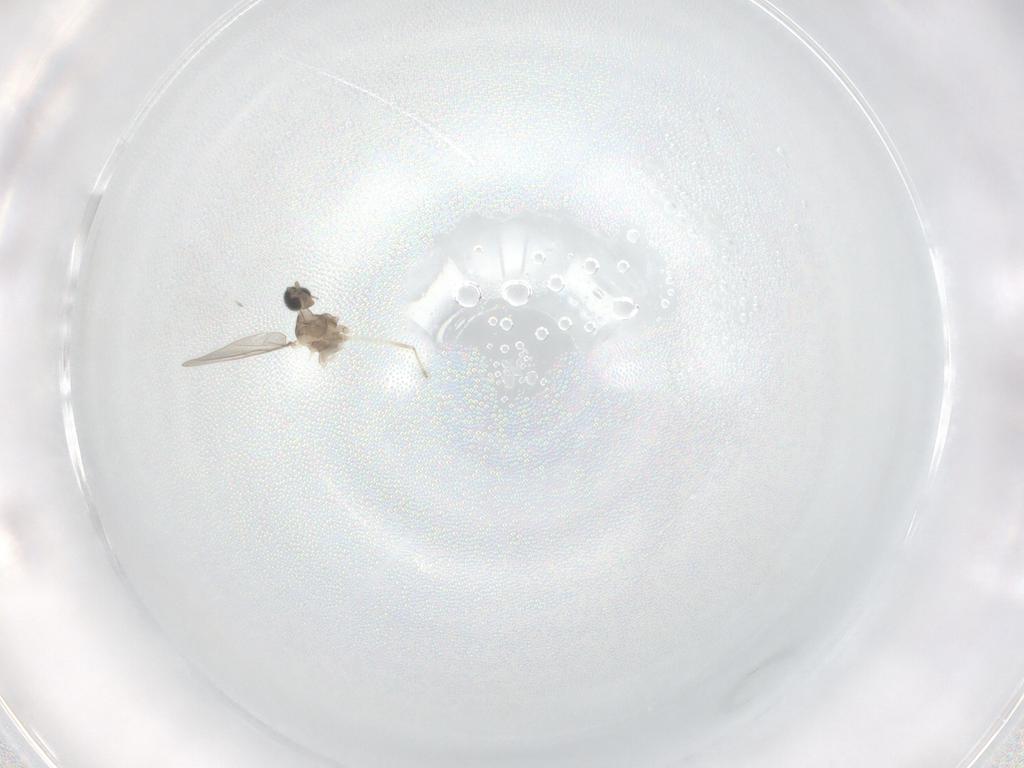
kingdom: Animalia
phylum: Arthropoda
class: Insecta
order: Diptera
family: Cecidomyiidae
